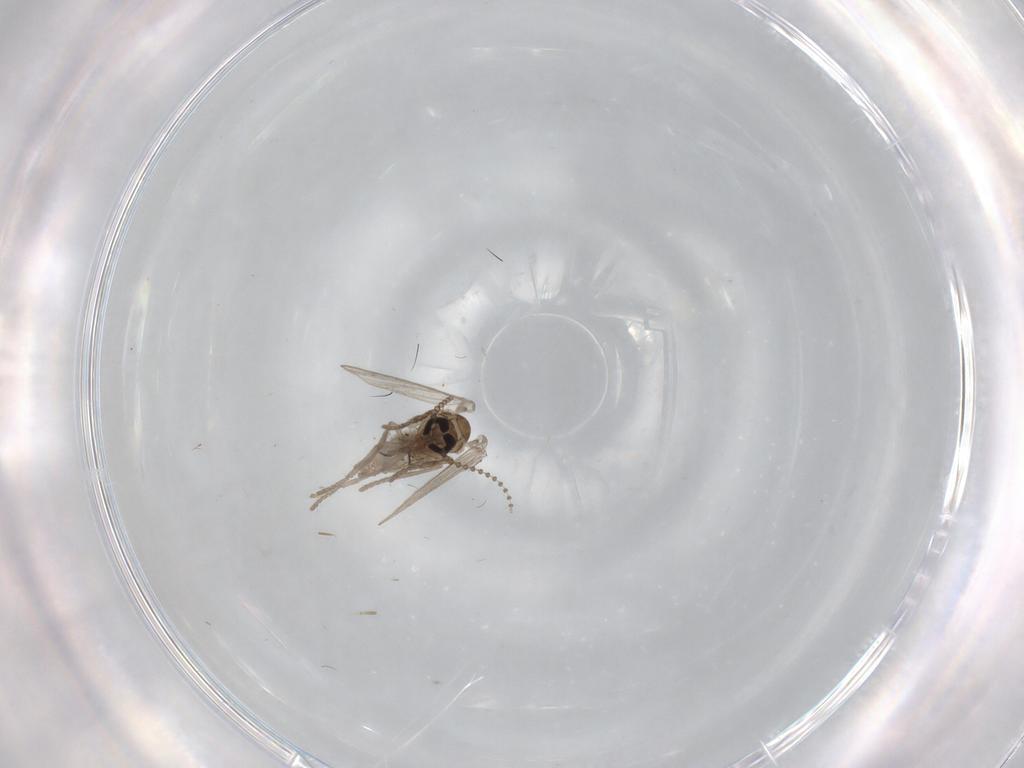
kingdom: Animalia
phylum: Arthropoda
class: Insecta
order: Diptera
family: Psychodidae
